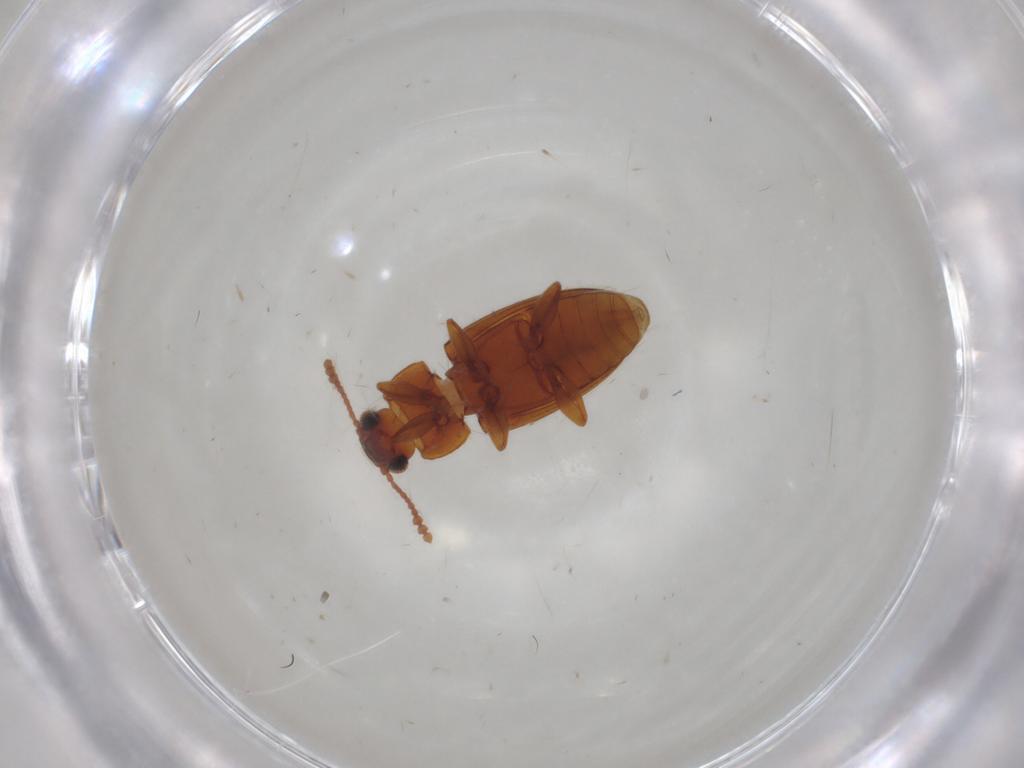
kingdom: Animalia
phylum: Arthropoda
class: Insecta
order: Coleoptera
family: Erotylidae
